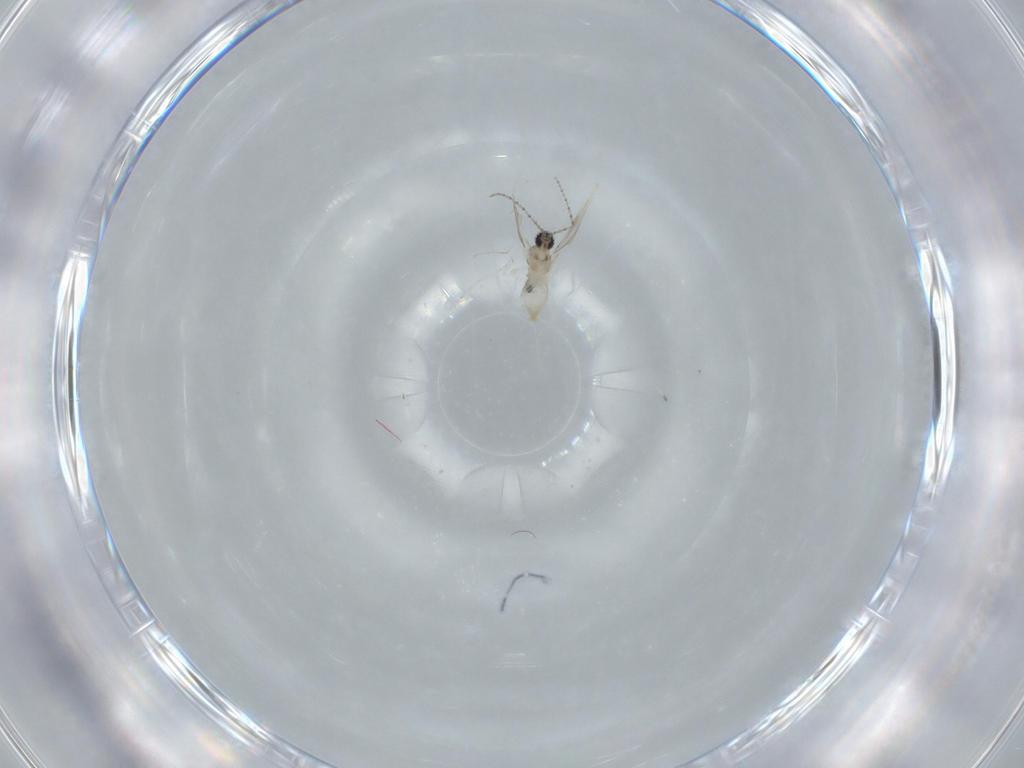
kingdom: Animalia
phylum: Arthropoda
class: Insecta
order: Diptera
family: Cecidomyiidae
